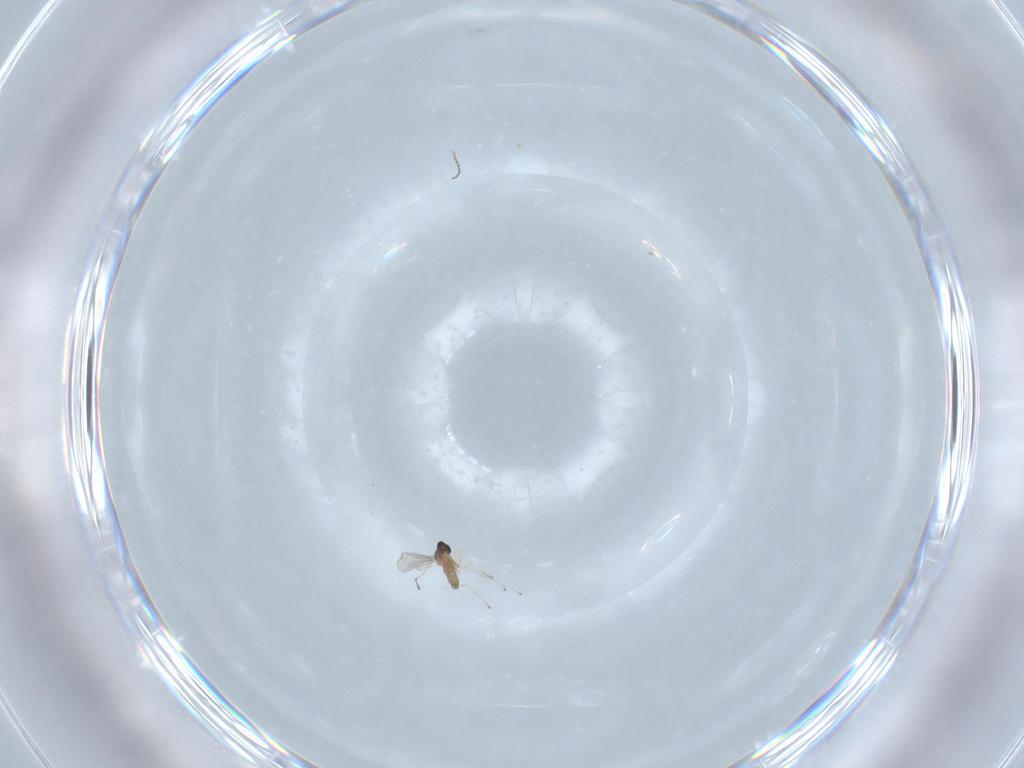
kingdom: Animalia
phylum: Arthropoda
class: Insecta
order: Diptera
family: Cecidomyiidae
